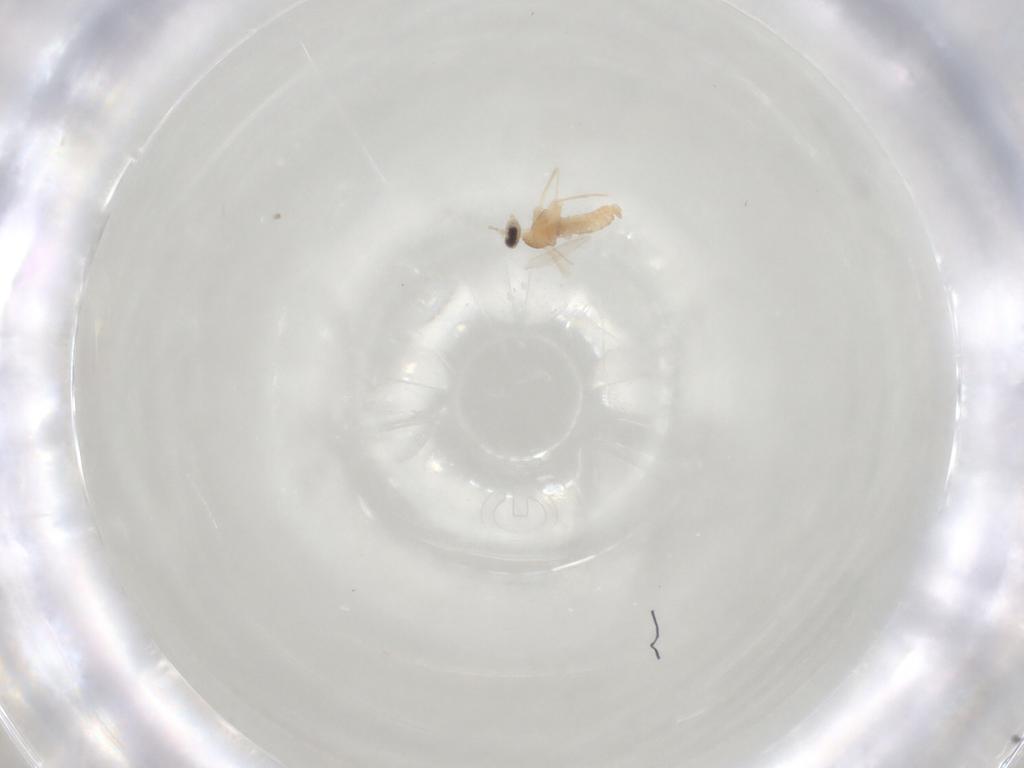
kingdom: Animalia
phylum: Arthropoda
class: Insecta
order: Diptera
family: Cecidomyiidae
